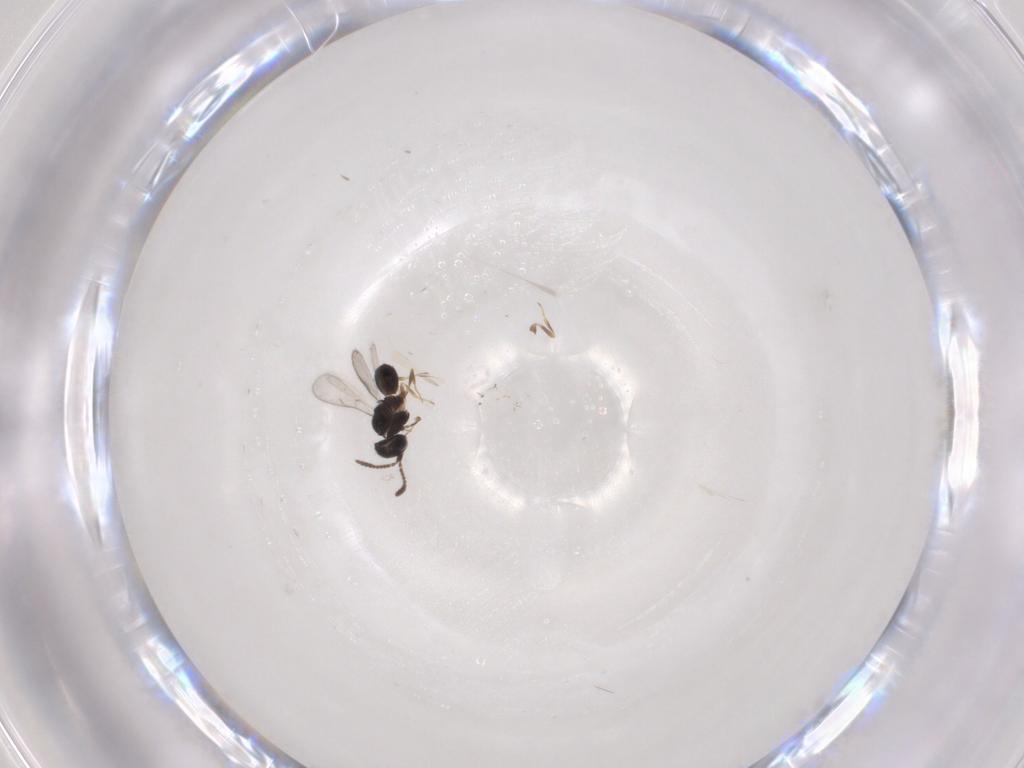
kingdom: Animalia
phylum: Arthropoda
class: Insecta
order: Hymenoptera
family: Scelionidae
